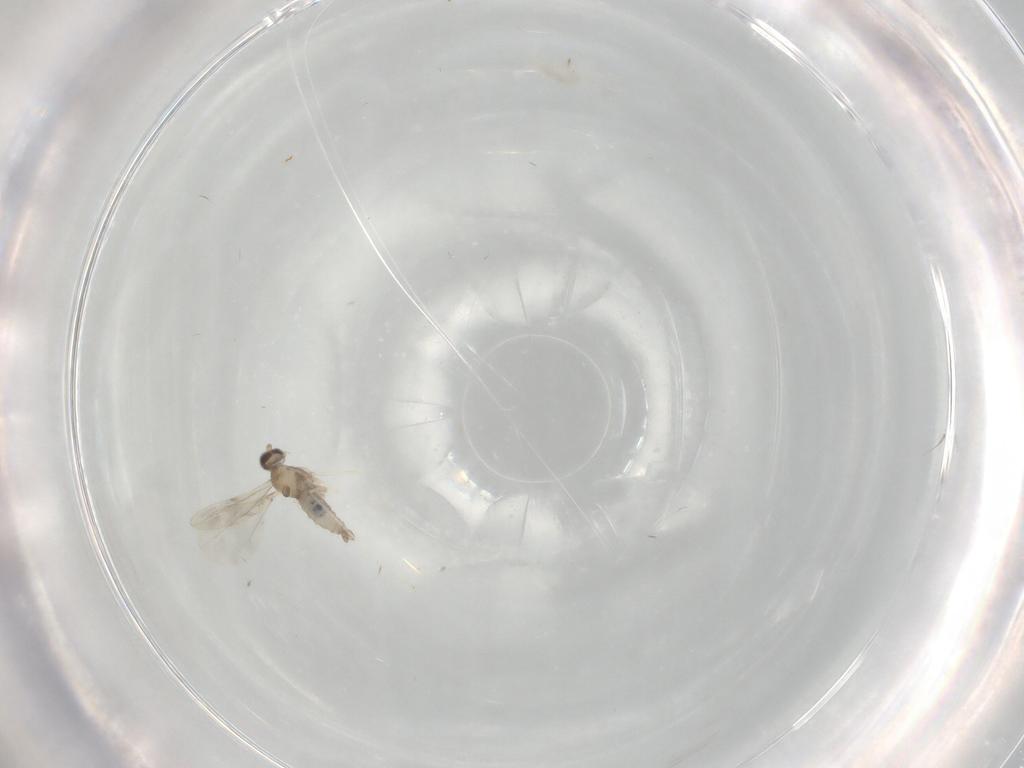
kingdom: Animalia
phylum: Arthropoda
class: Insecta
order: Diptera
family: Cecidomyiidae
